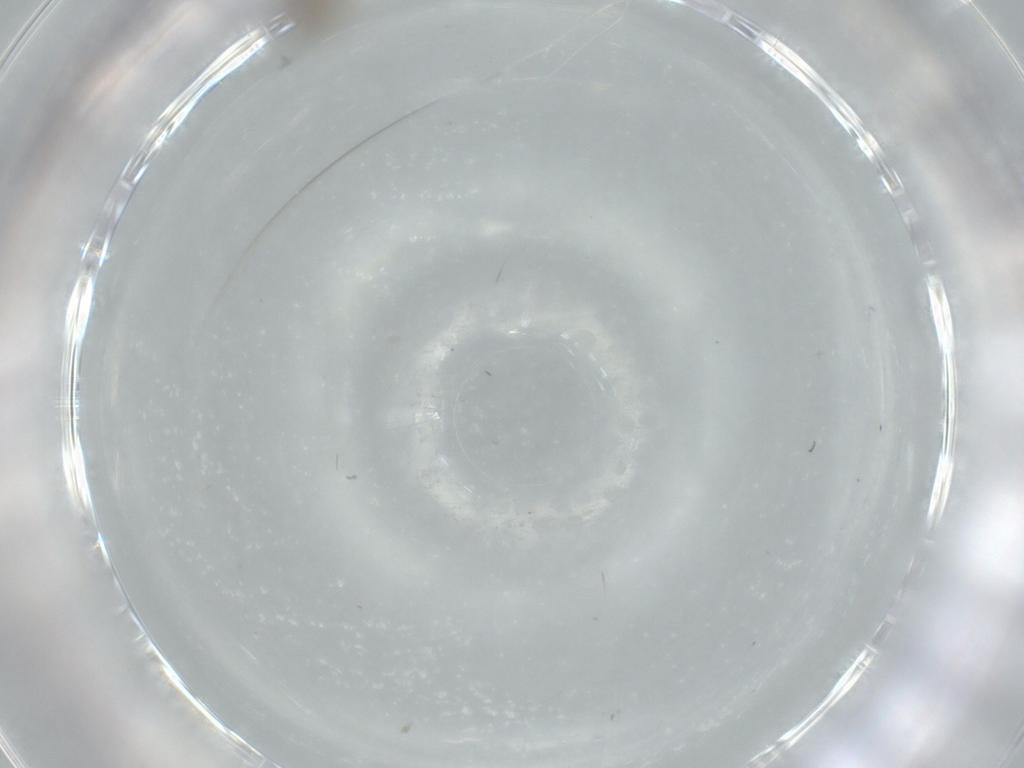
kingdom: Animalia
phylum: Arthropoda
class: Insecta
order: Diptera
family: Cecidomyiidae
